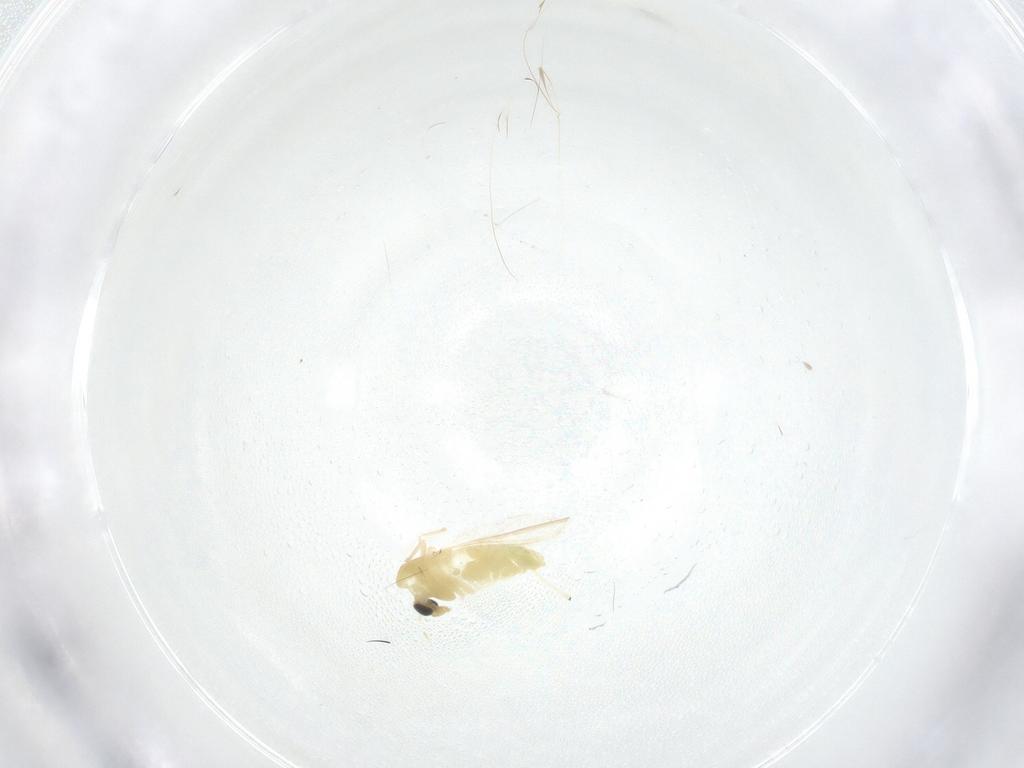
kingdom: Animalia
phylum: Arthropoda
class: Insecta
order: Diptera
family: Chironomidae
